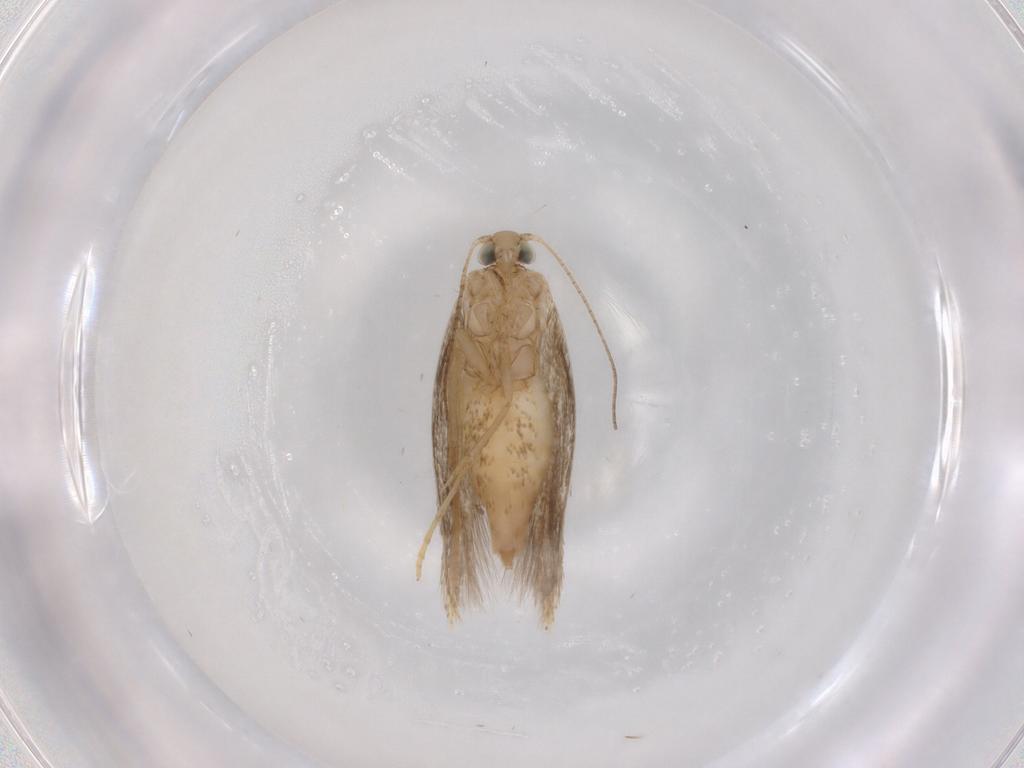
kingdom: Animalia
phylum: Arthropoda
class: Insecta
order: Lepidoptera
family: Tischeriidae
